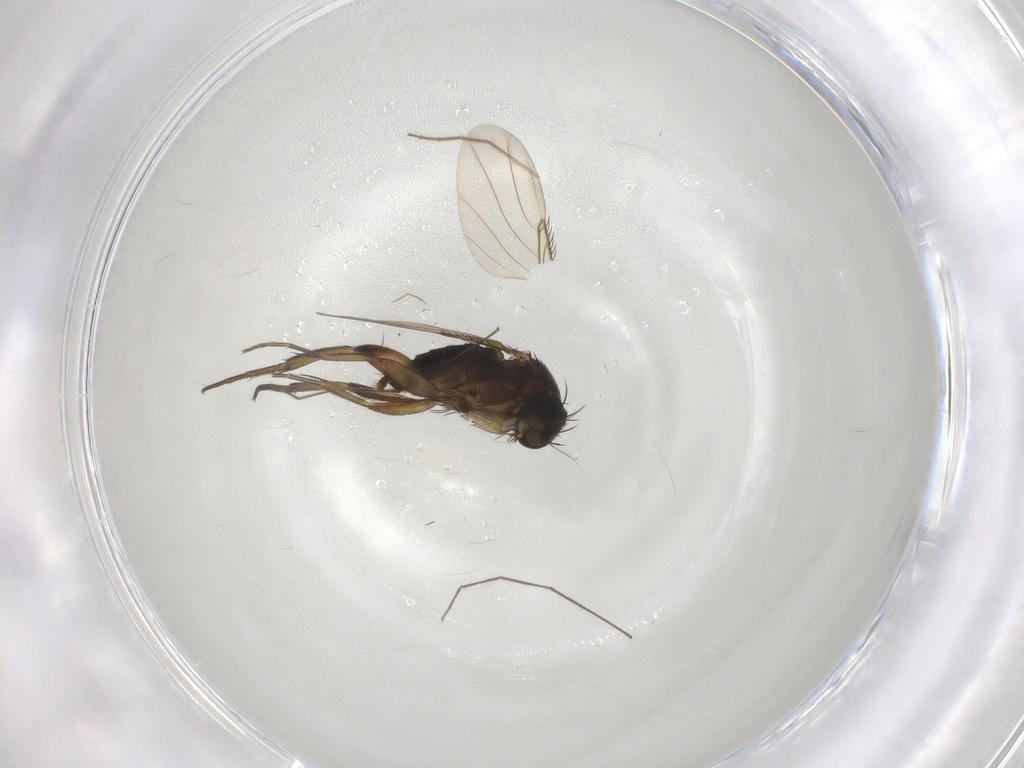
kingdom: Animalia
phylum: Arthropoda
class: Insecta
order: Diptera
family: Phoridae
